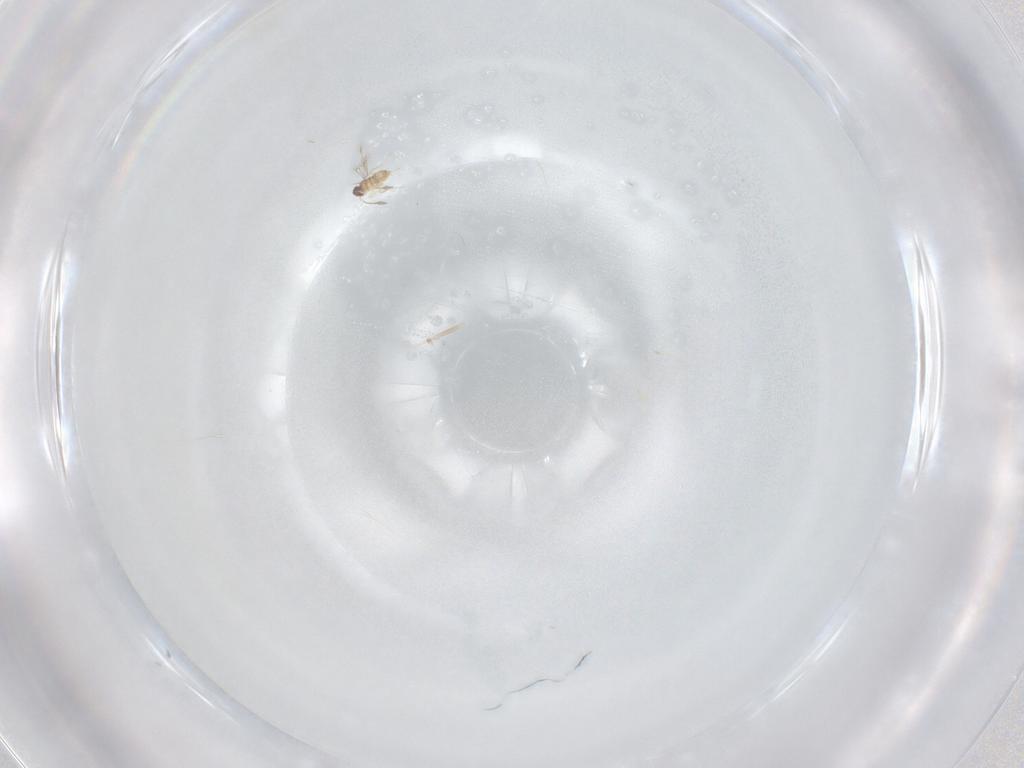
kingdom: Animalia
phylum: Arthropoda
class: Insecta
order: Hymenoptera
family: Mymaridae
